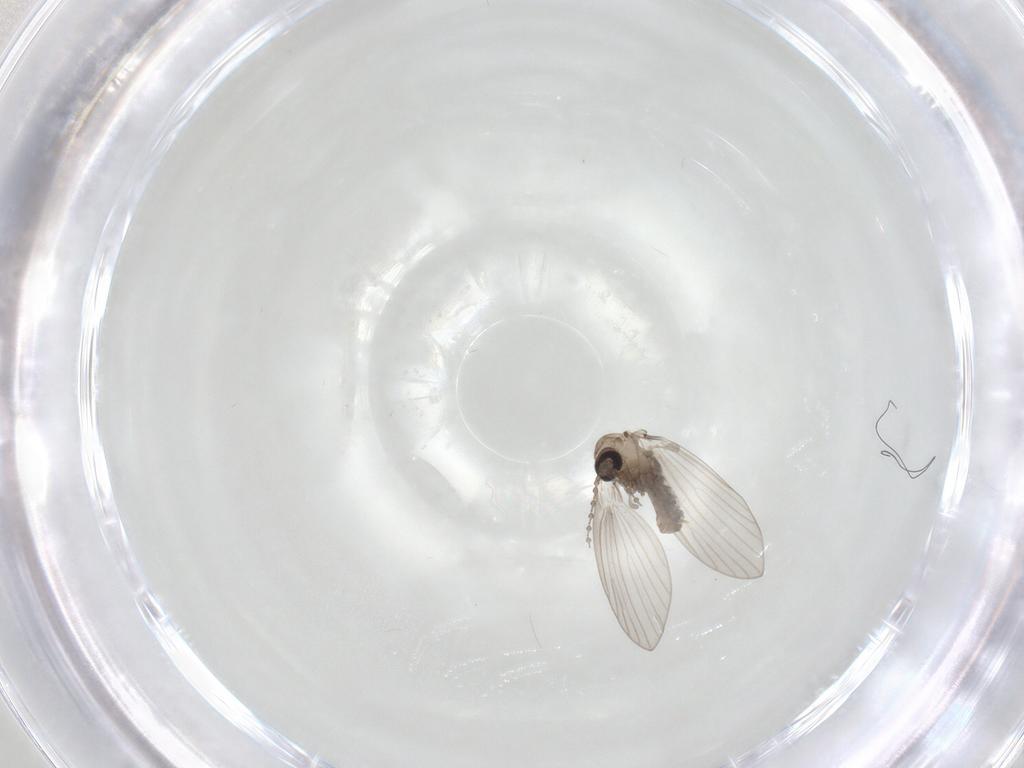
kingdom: Animalia
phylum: Arthropoda
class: Insecta
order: Diptera
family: Psychodidae
